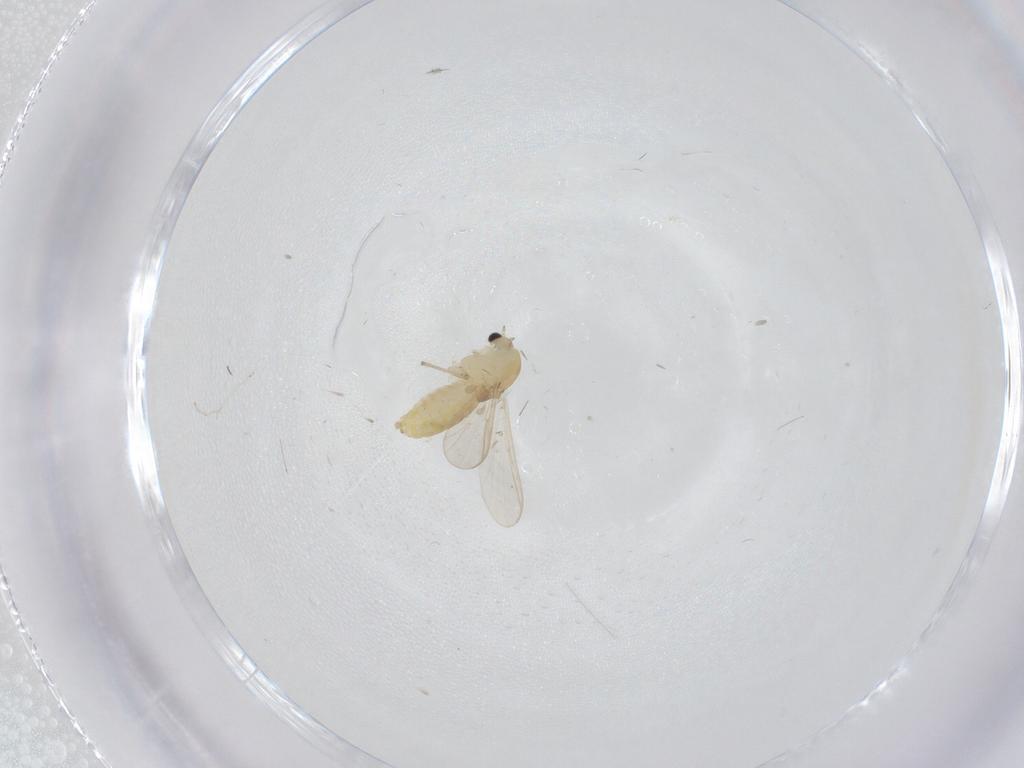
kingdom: Animalia
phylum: Arthropoda
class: Insecta
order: Diptera
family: Chironomidae
